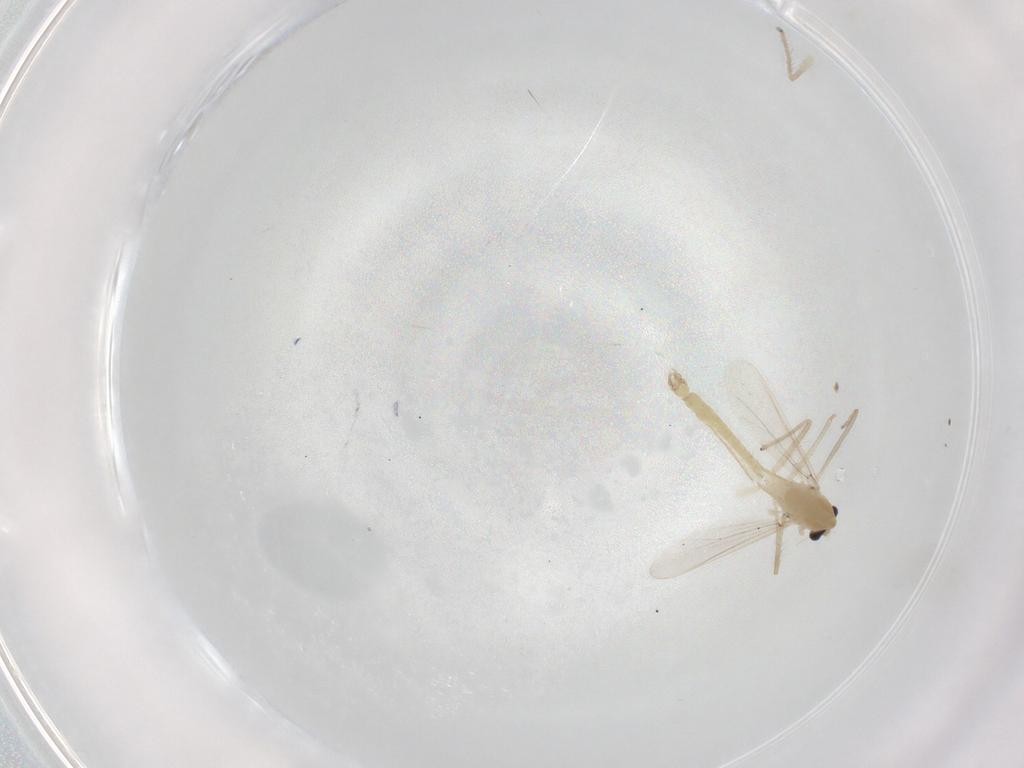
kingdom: Animalia
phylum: Arthropoda
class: Insecta
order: Diptera
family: Chironomidae
